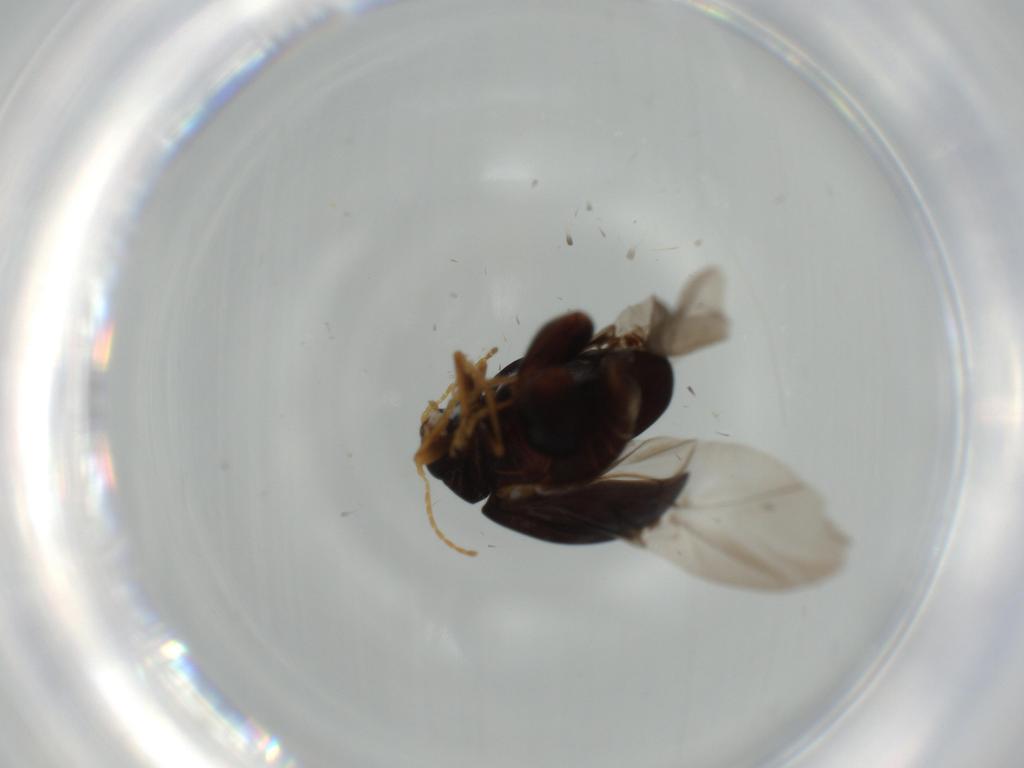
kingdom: Animalia
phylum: Arthropoda
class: Insecta
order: Coleoptera
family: Chrysomelidae
